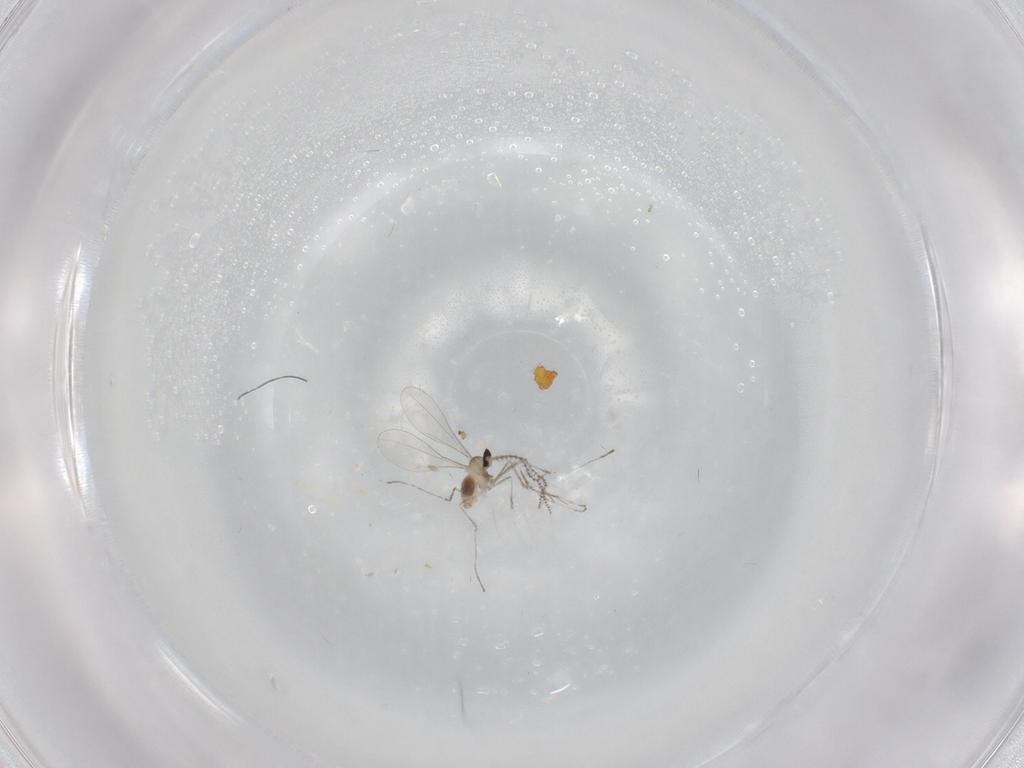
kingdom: Animalia
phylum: Arthropoda
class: Insecta
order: Diptera
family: Cecidomyiidae
